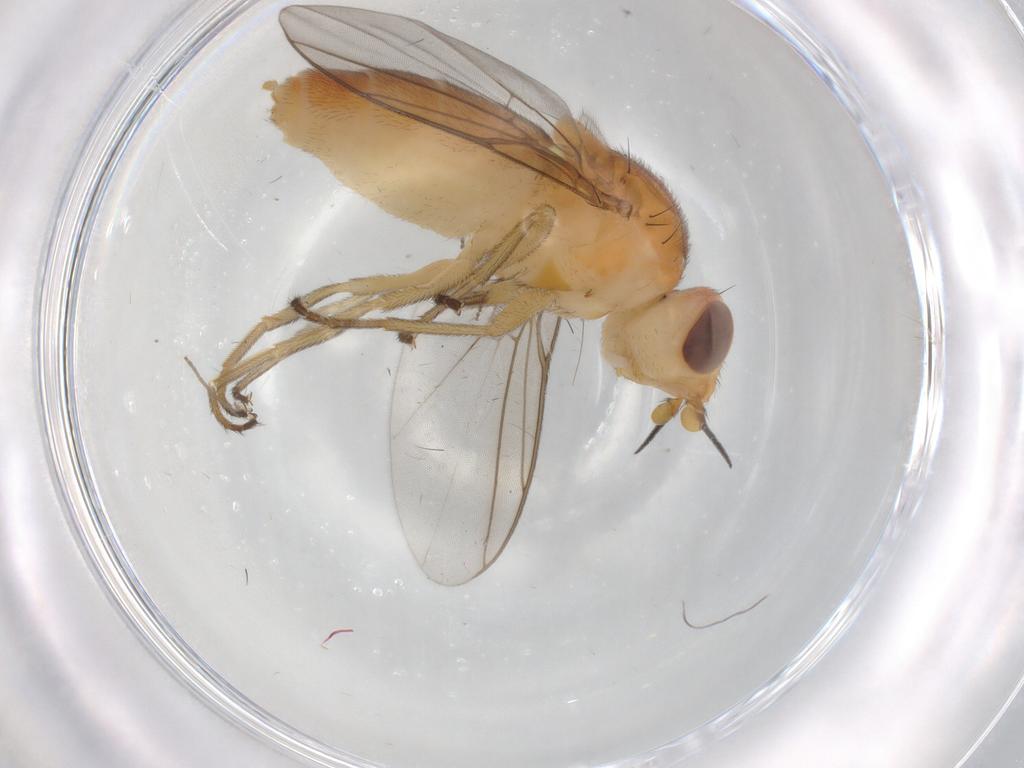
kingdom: Animalia
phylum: Arthropoda
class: Insecta
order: Diptera
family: Chloropidae
